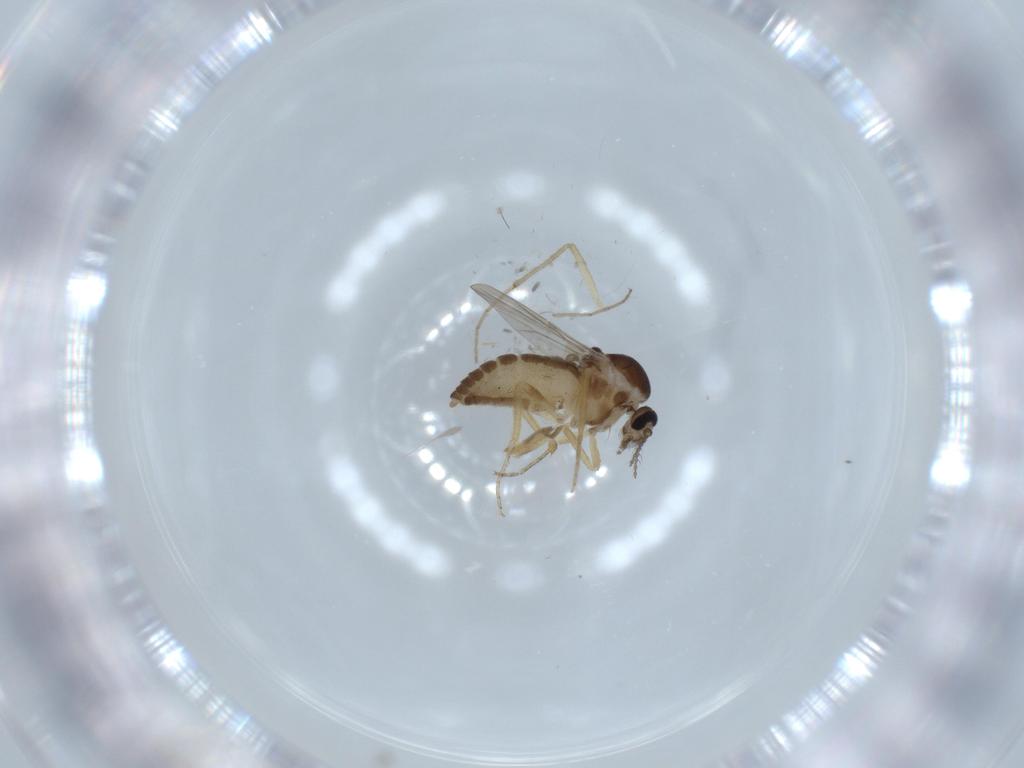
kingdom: Animalia
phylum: Arthropoda
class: Insecta
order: Diptera
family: Ceratopogonidae
